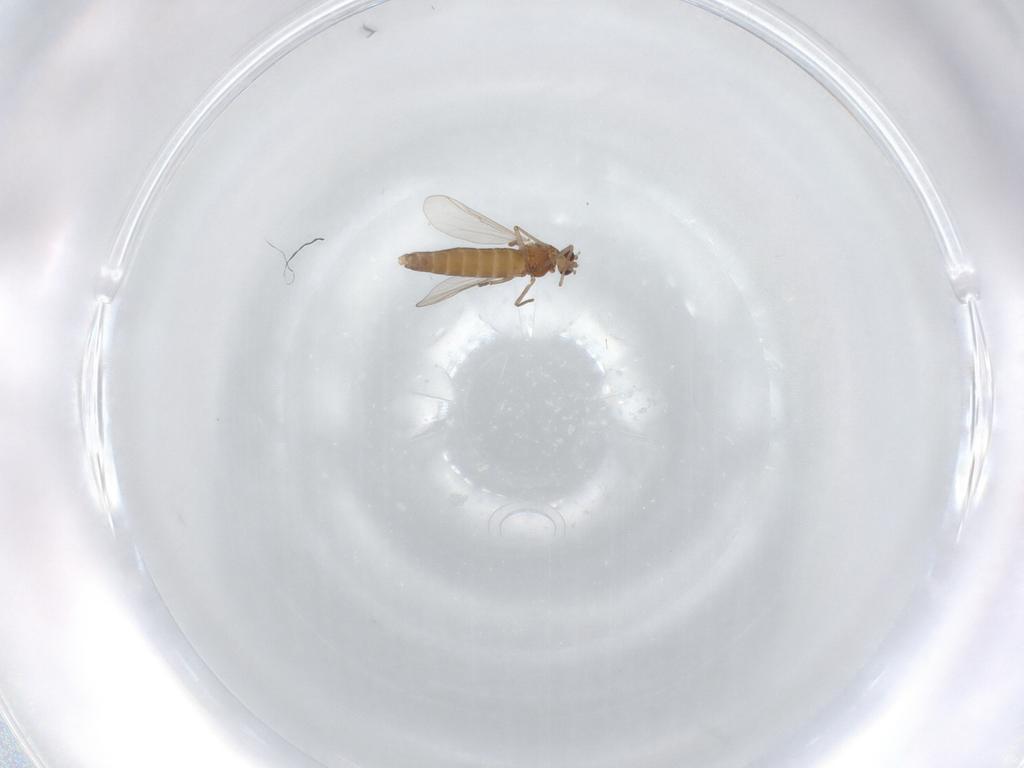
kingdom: Animalia
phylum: Arthropoda
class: Insecta
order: Diptera
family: Chironomidae
